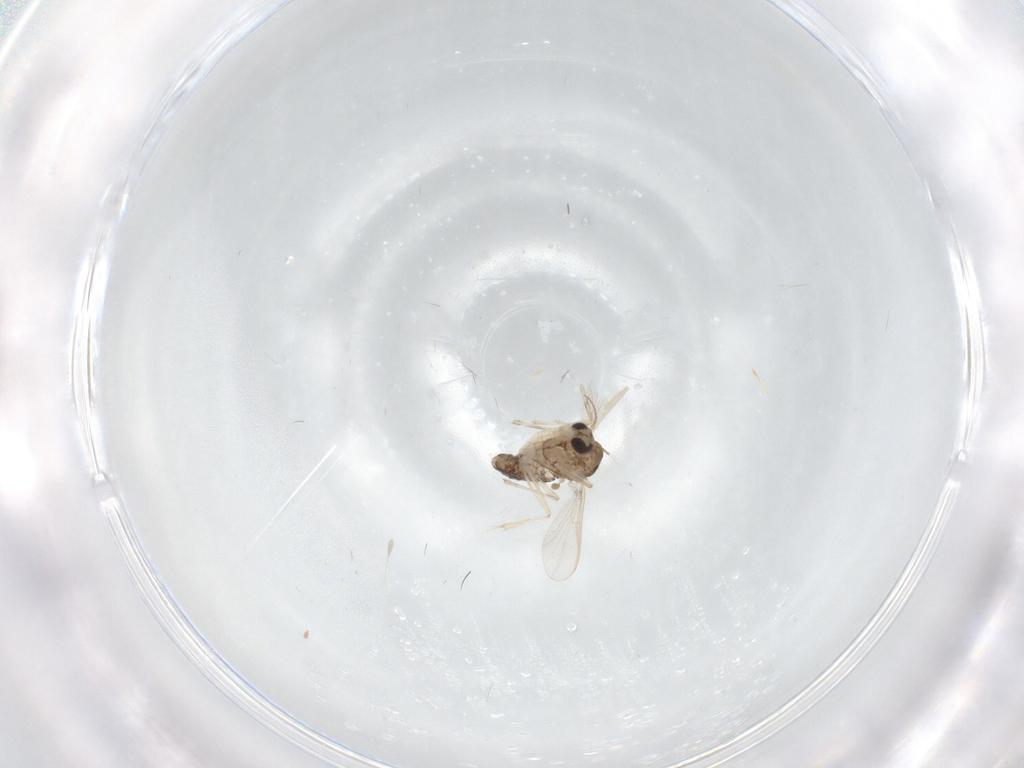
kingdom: Animalia
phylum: Arthropoda
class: Insecta
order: Diptera
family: Chironomidae
